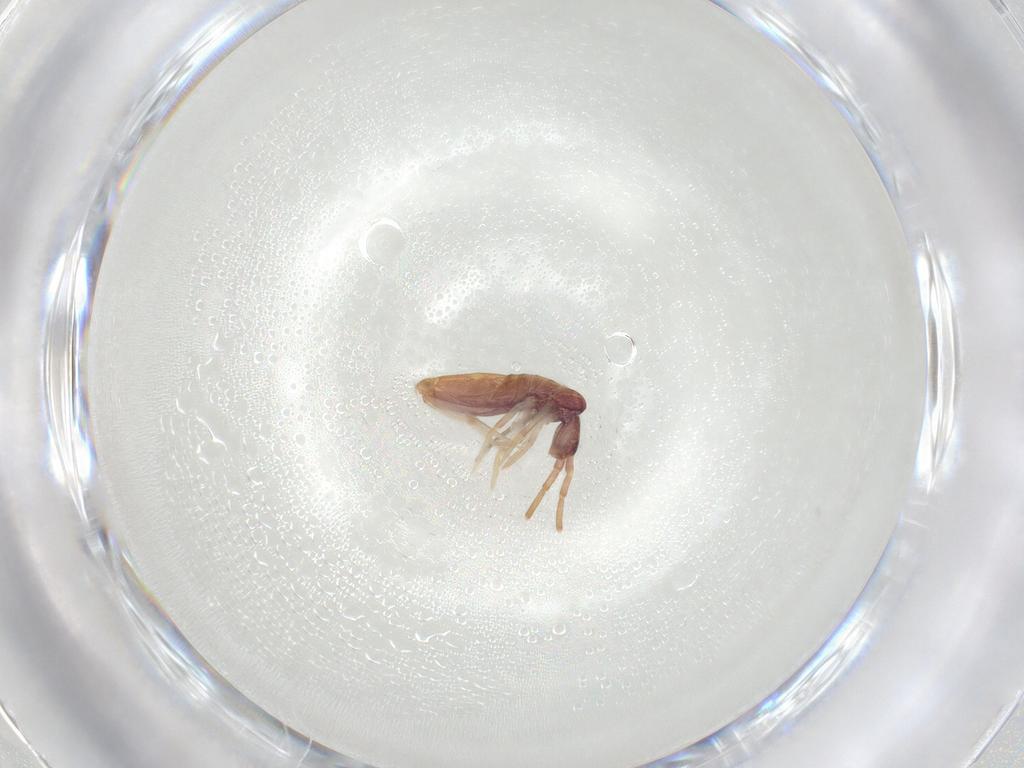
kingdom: Animalia
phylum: Arthropoda
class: Collembola
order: Entomobryomorpha
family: Entomobryidae
